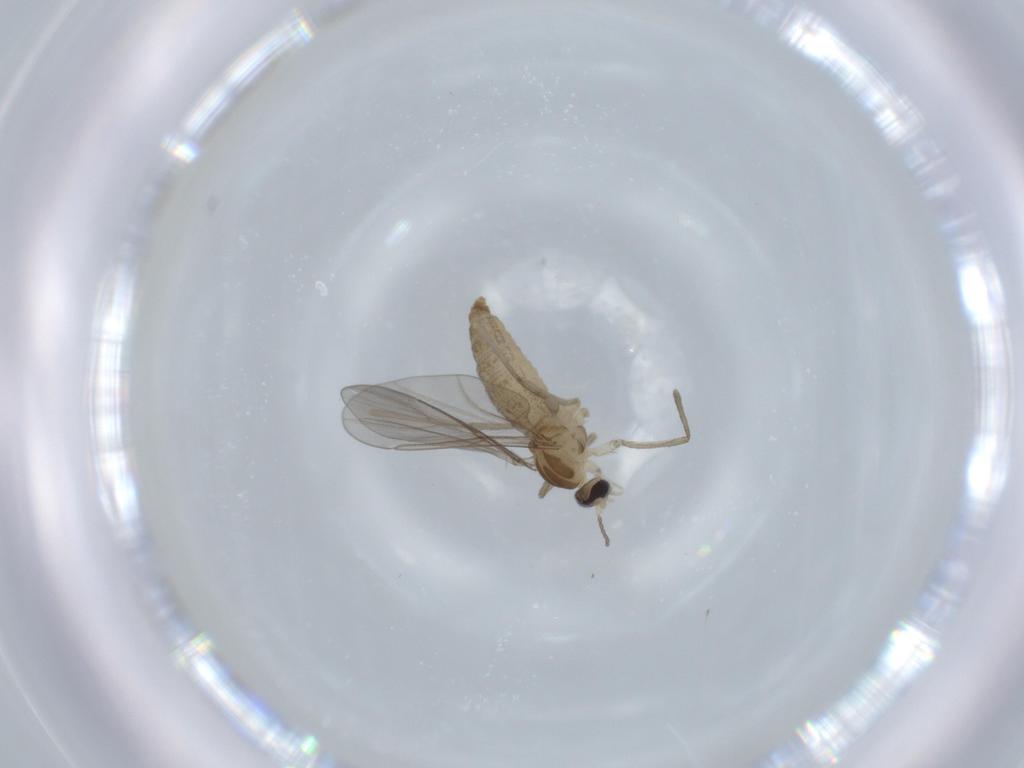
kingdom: Animalia
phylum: Arthropoda
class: Insecta
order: Diptera
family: Cecidomyiidae
